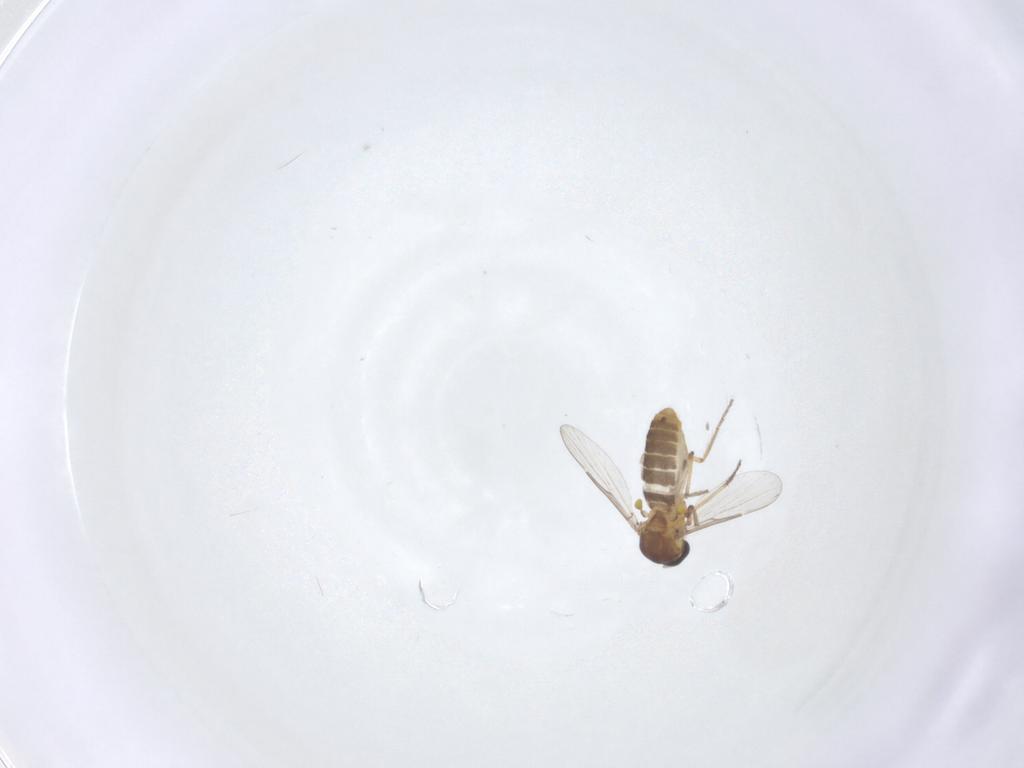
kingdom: Animalia
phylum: Arthropoda
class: Insecta
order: Diptera
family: Ceratopogonidae
